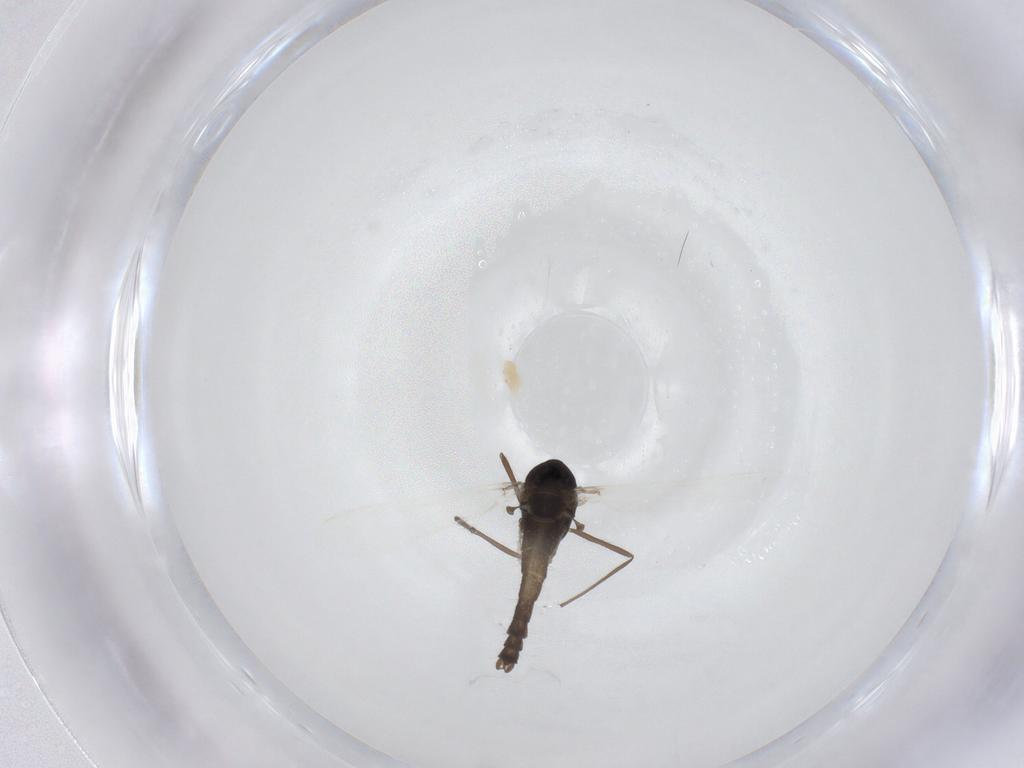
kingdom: Animalia
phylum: Arthropoda
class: Insecta
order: Diptera
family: Chironomidae
